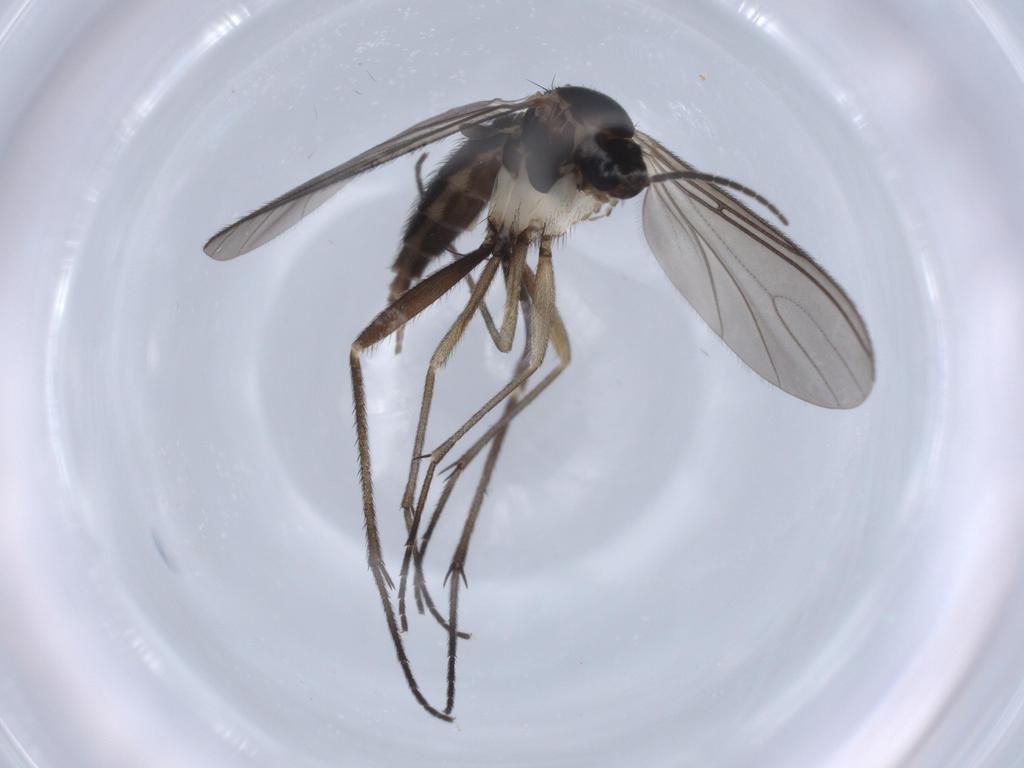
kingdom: Animalia
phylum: Arthropoda
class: Insecta
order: Diptera
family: Sciaridae
